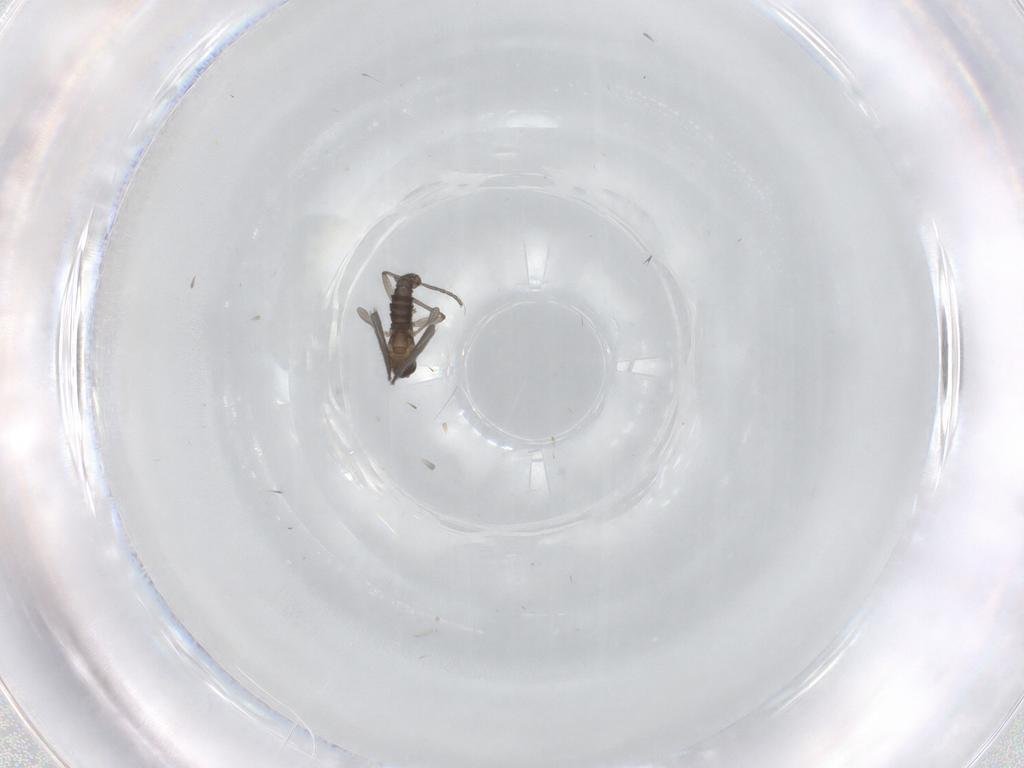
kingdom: Animalia
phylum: Arthropoda
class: Insecta
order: Diptera
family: Sciaridae
